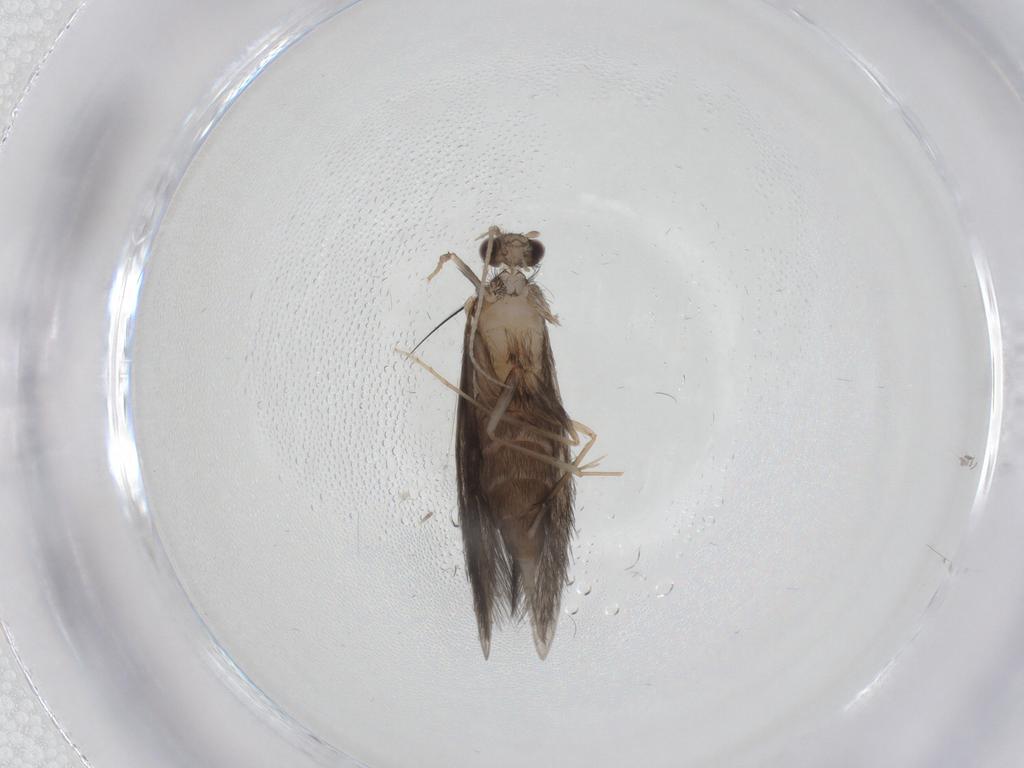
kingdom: Animalia
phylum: Arthropoda
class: Insecta
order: Trichoptera
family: Hydroptilidae
